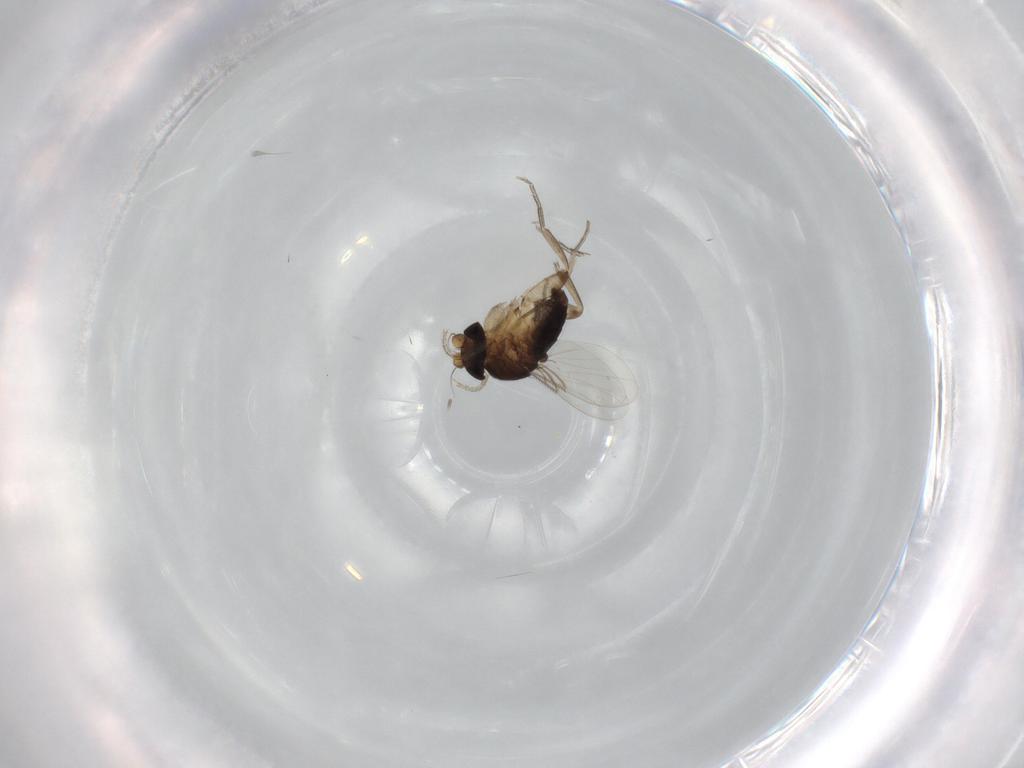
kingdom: Animalia
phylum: Arthropoda
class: Insecta
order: Diptera
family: Phoridae
